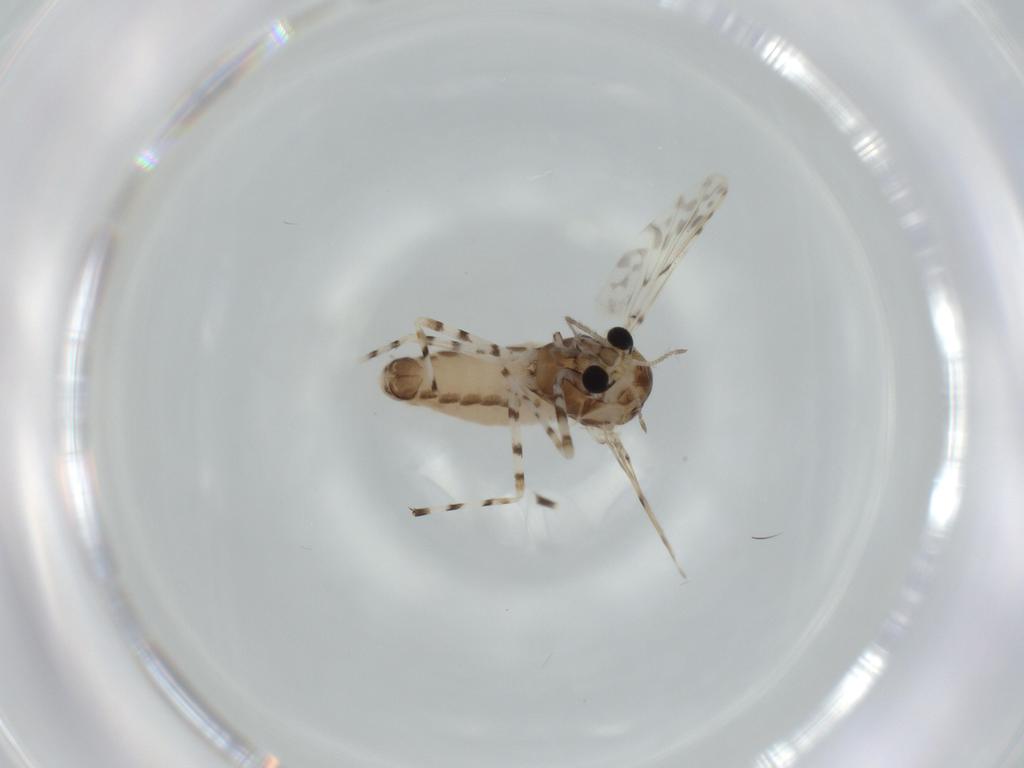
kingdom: Animalia
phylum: Arthropoda
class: Insecta
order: Diptera
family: Chironomidae
